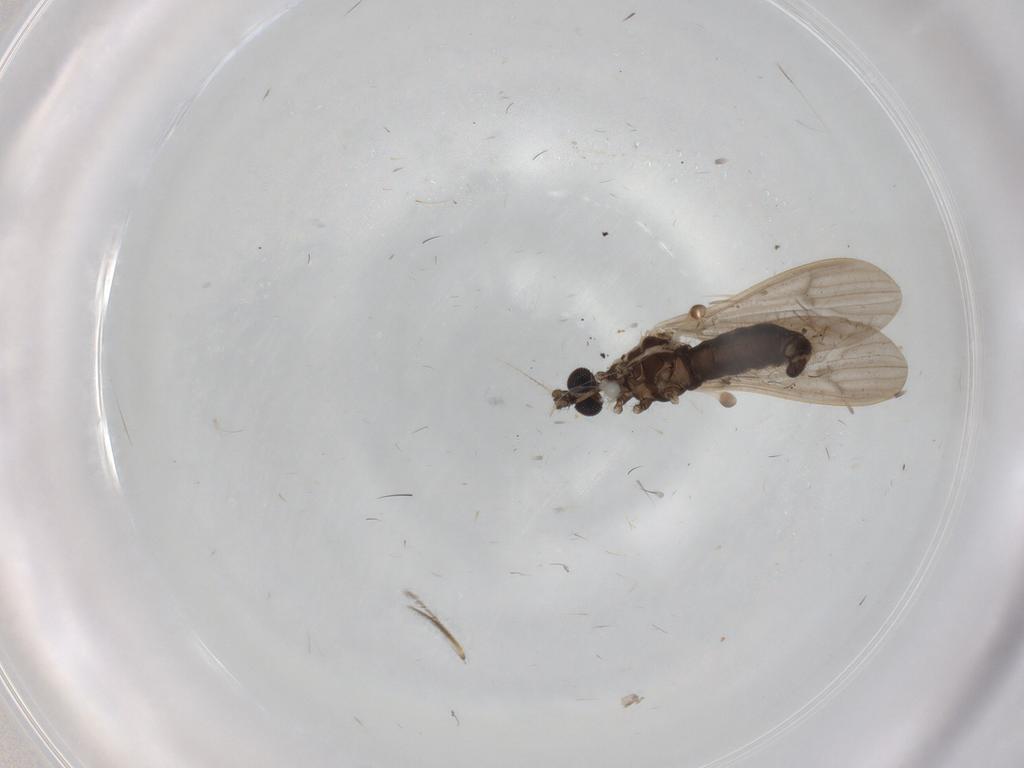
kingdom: Animalia
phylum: Arthropoda
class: Insecta
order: Diptera
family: Limoniidae
